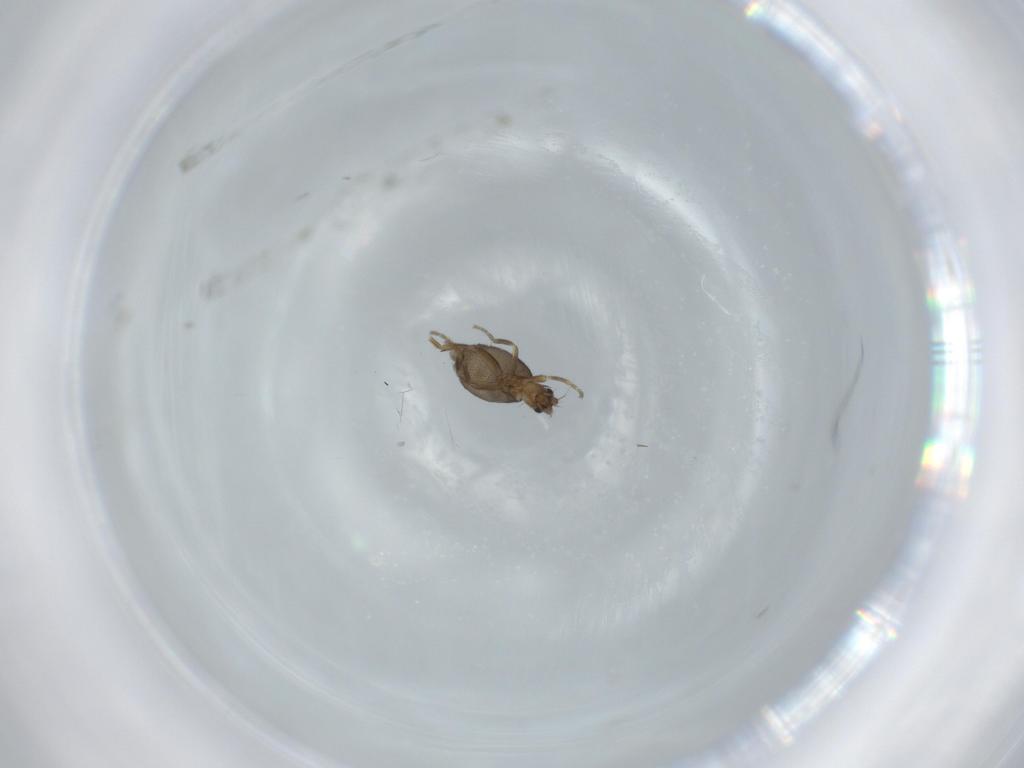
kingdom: Animalia
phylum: Arthropoda
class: Insecta
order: Diptera
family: Phoridae
